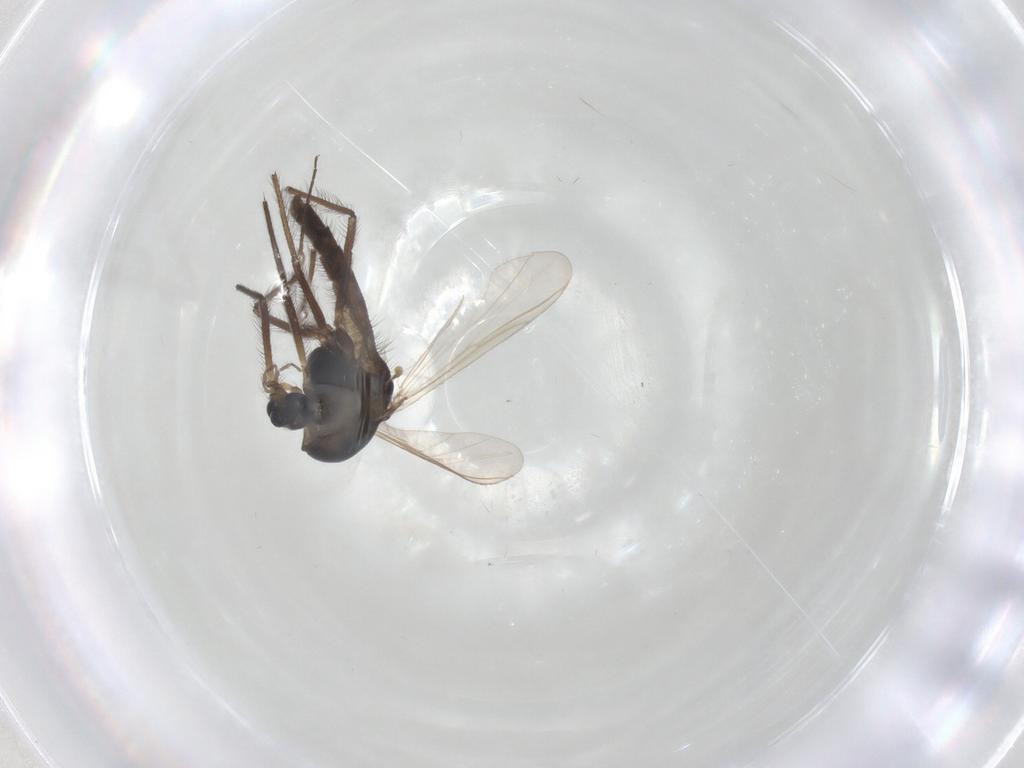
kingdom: Animalia
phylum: Arthropoda
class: Insecta
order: Diptera
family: Chironomidae
